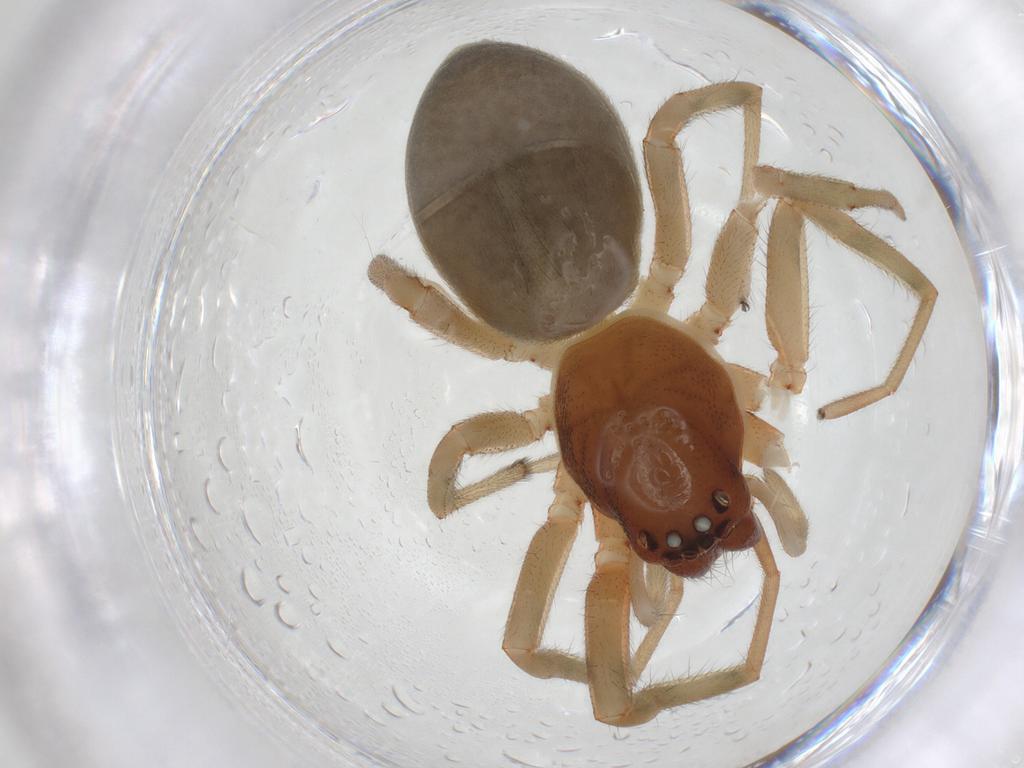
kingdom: Animalia
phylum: Arthropoda
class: Arachnida
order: Araneae
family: Trachelidae
